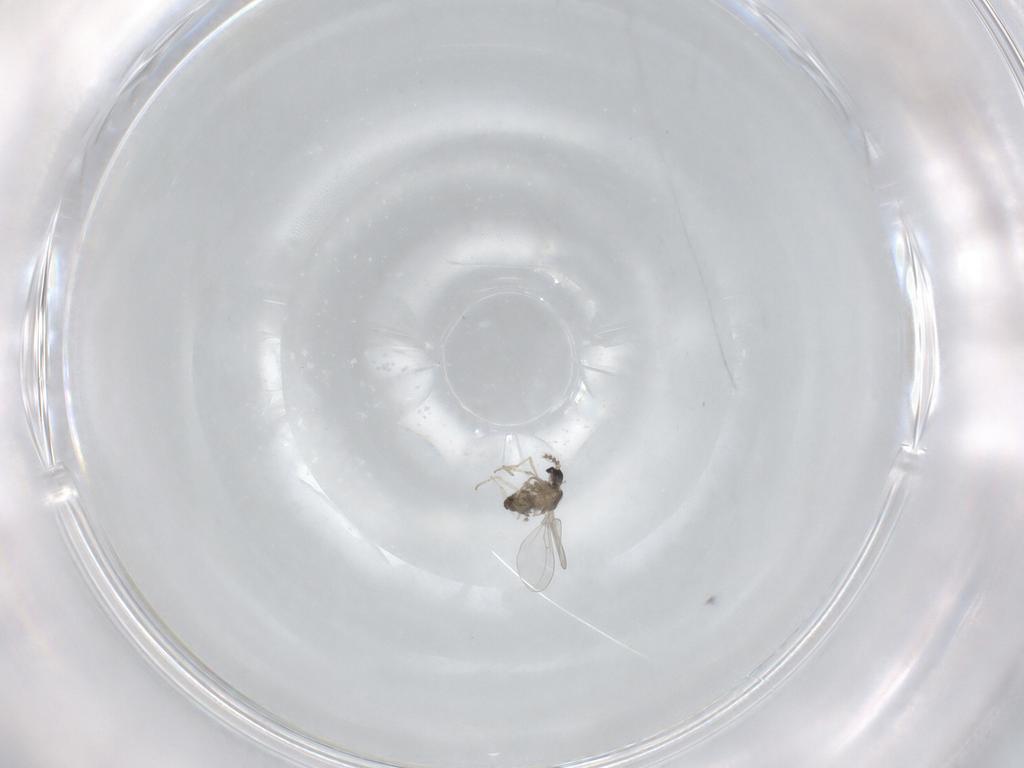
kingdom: Animalia
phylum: Arthropoda
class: Insecta
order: Diptera
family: Cecidomyiidae
